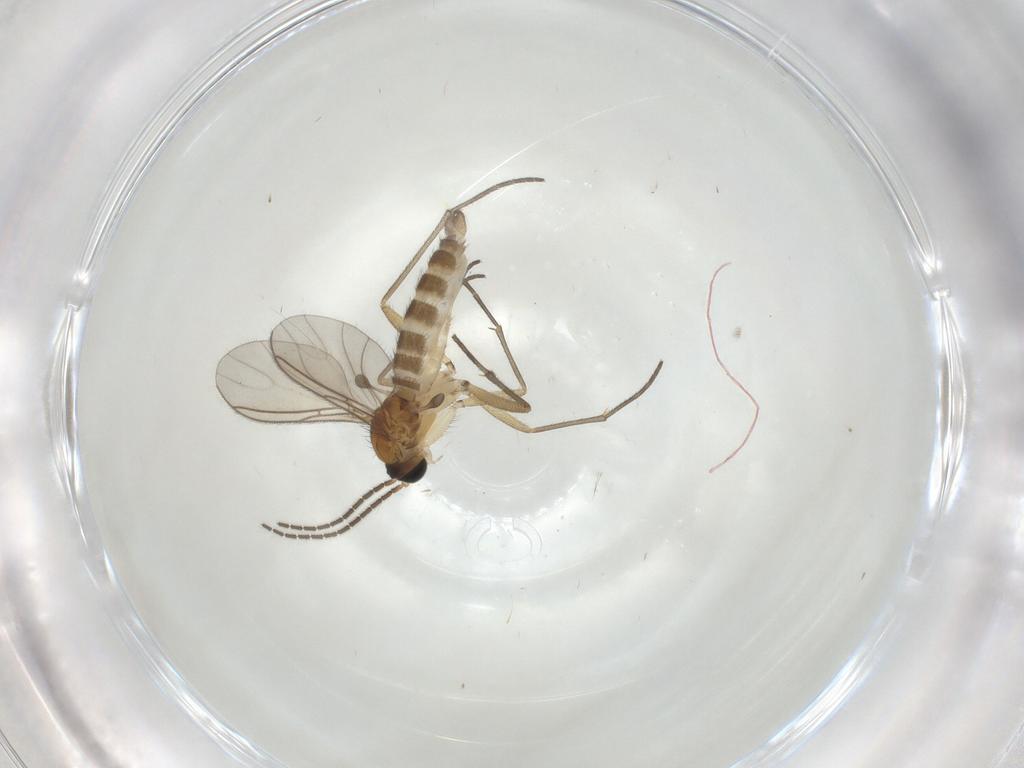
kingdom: Animalia
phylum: Arthropoda
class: Insecta
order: Diptera
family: Sciaridae
